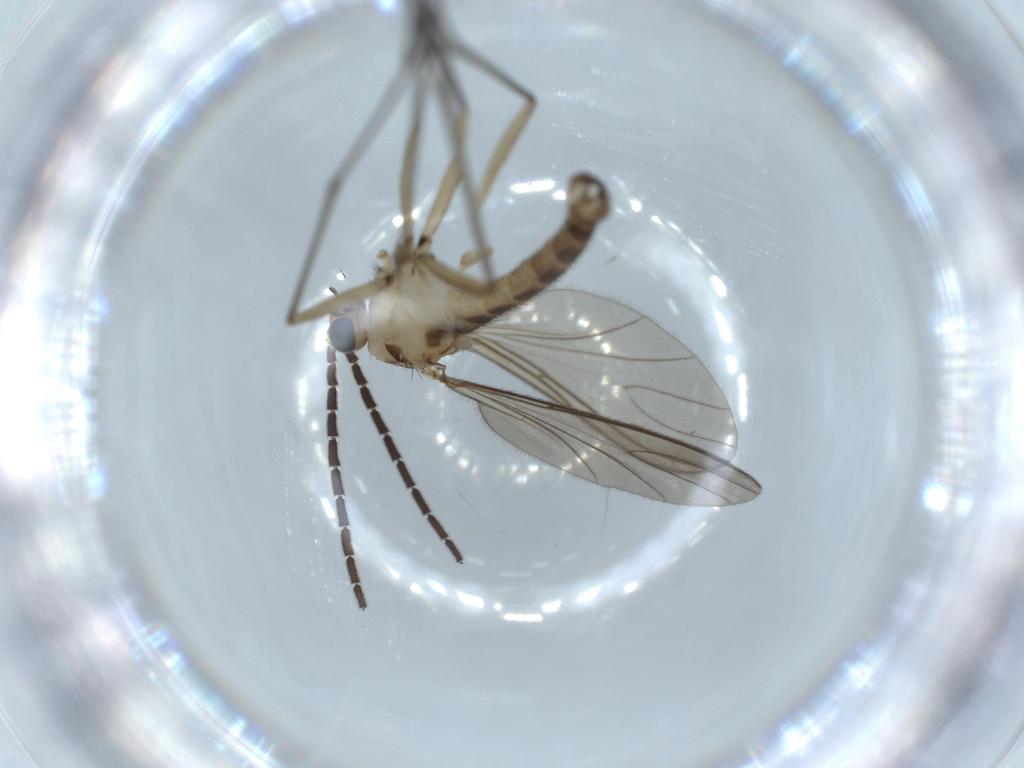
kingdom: Animalia
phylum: Arthropoda
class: Insecta
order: Diptera
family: Sciaridae
